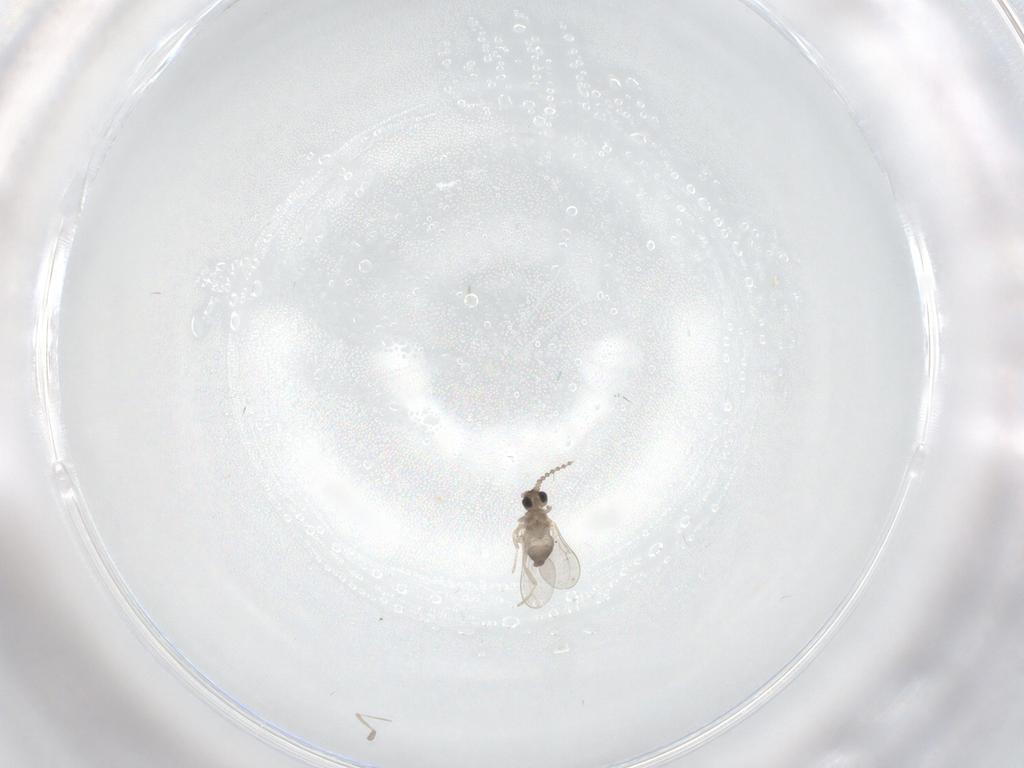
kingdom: Animalia
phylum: Arthropoda
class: Insecta
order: Diptera
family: Cecidomyiidae
